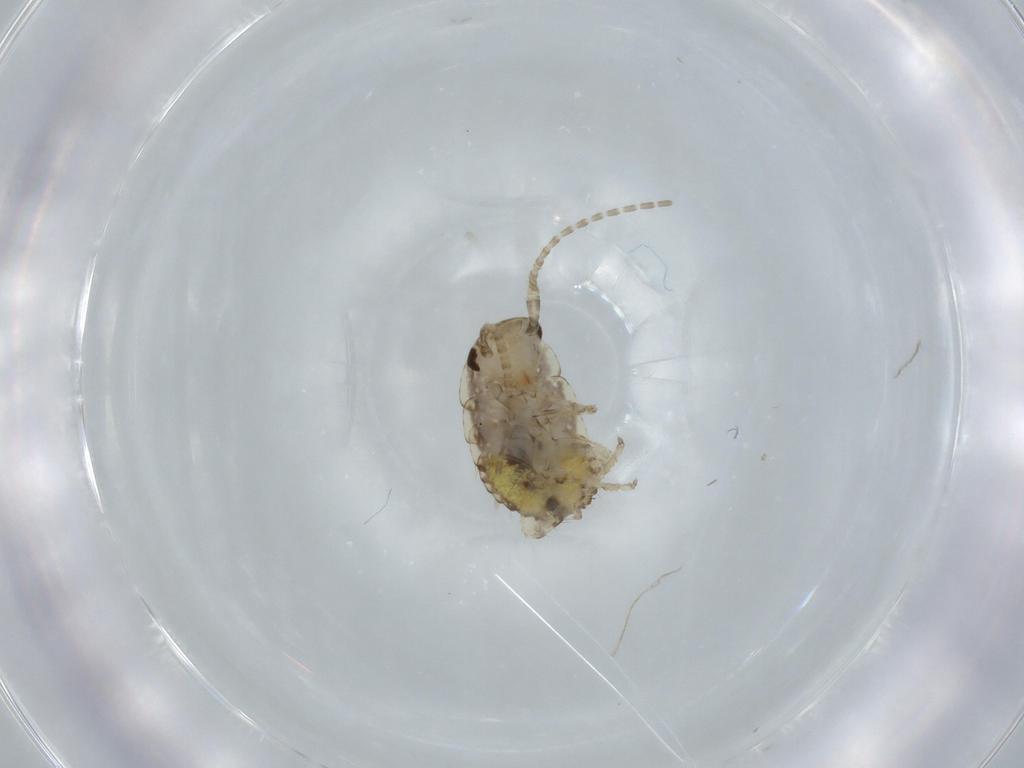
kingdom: Animalia
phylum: Arthropoda
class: Insecta
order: Blattodea
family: Ectobiidae
